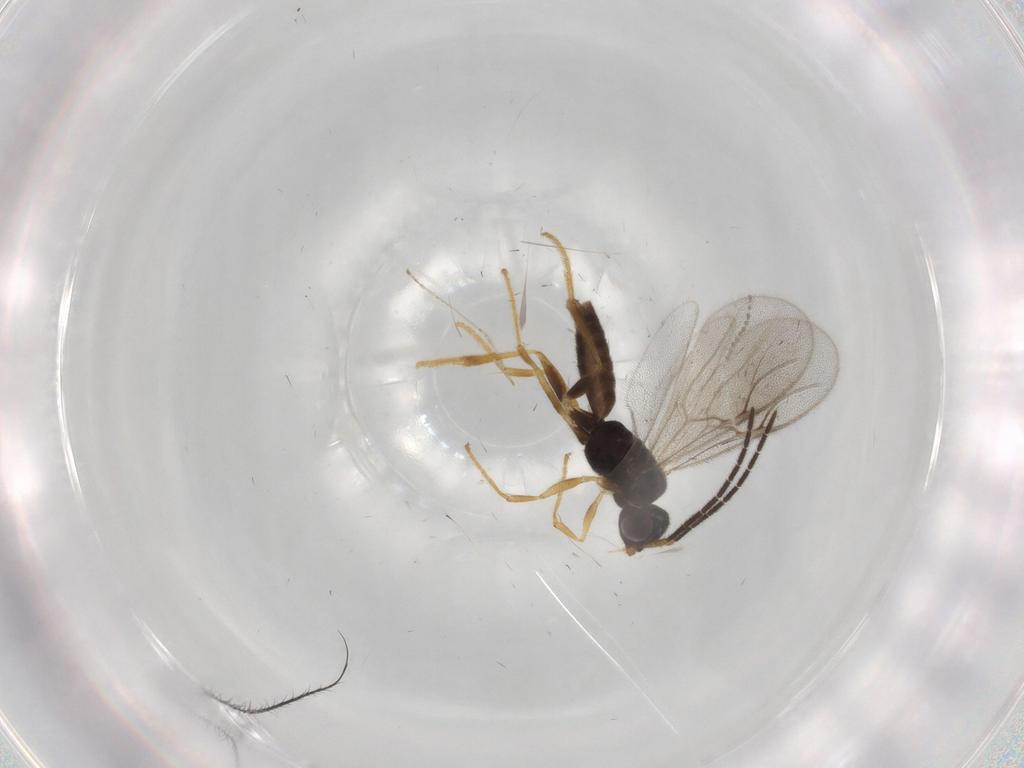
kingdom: Animalia
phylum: Arthropoda
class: Insecta
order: Hymenoptera
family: Dryinidae
